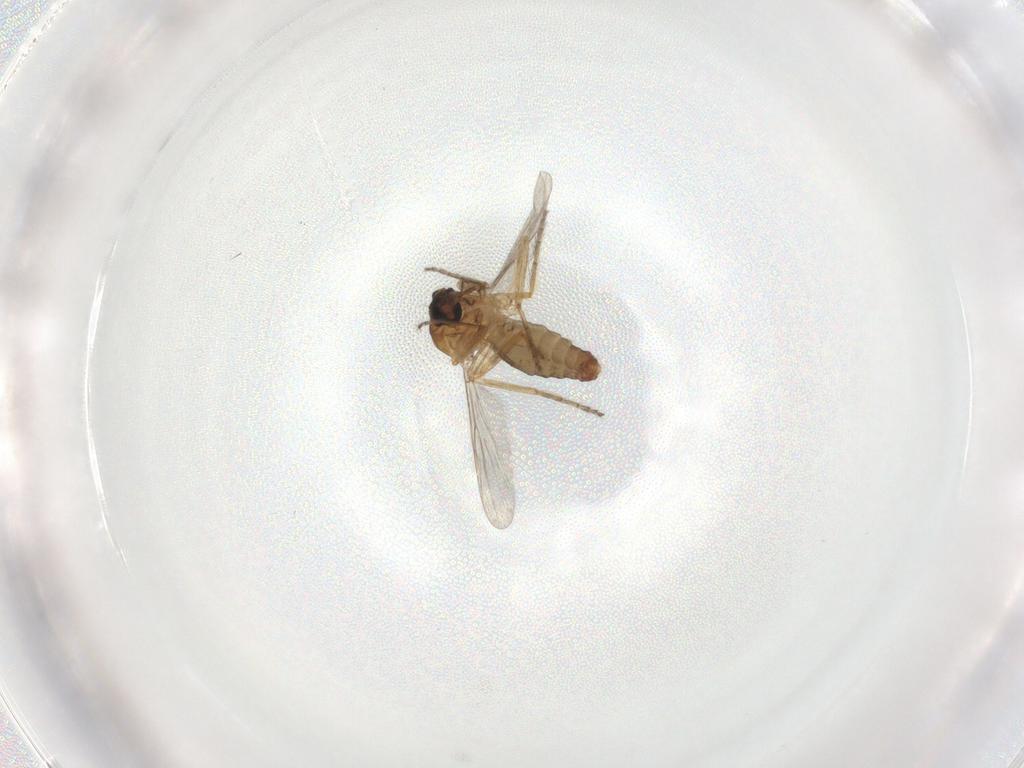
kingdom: Animalia
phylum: Arthropoda
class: Insecta
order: Diptera
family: Ceratopogonidae
